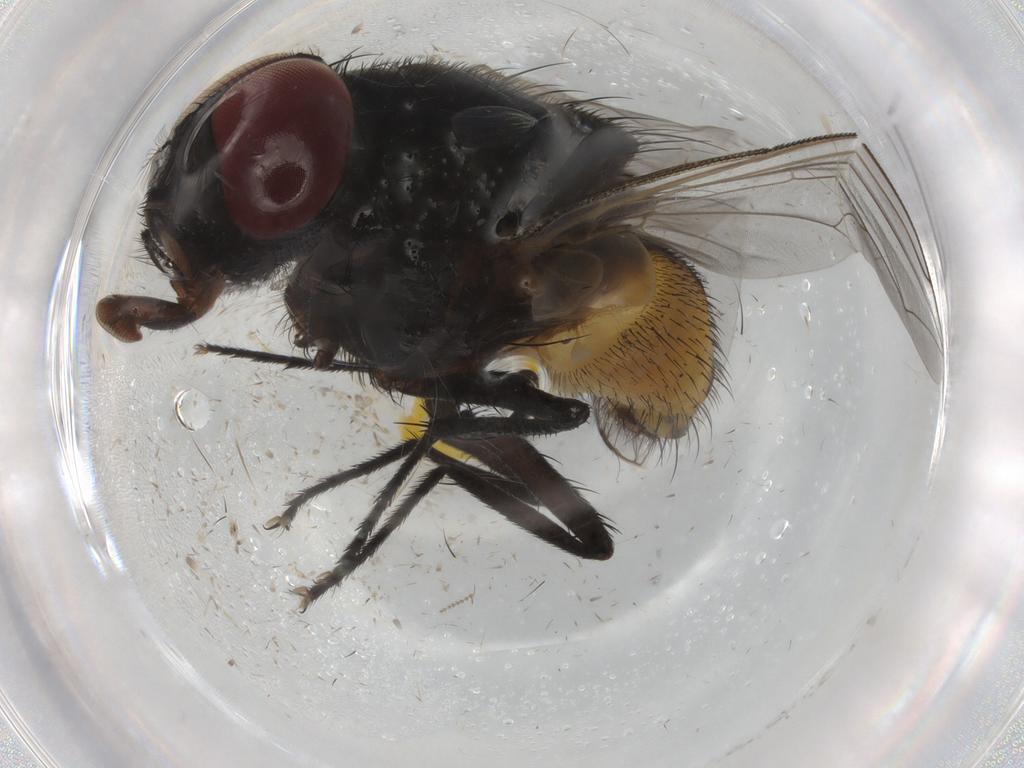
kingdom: Animalia
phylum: Arthropoda
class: Insecta
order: Diptera
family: Muscidae
